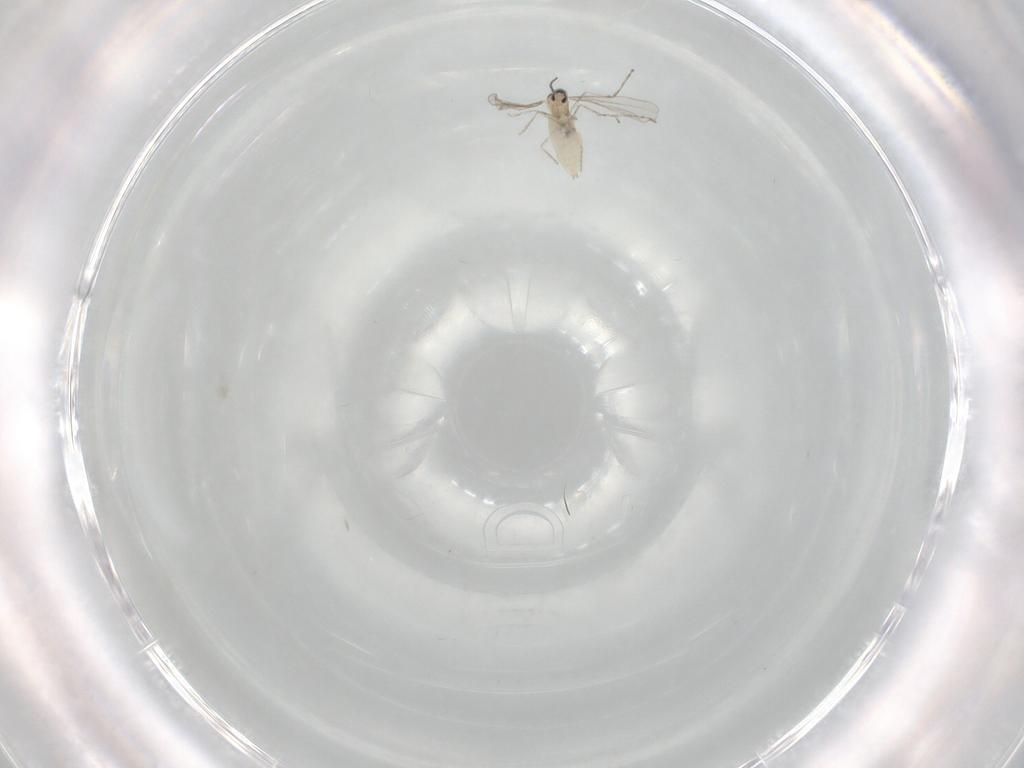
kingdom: Animalia
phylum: Arthropoda
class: Insecta
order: Diptera
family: Cecidomyiidae
